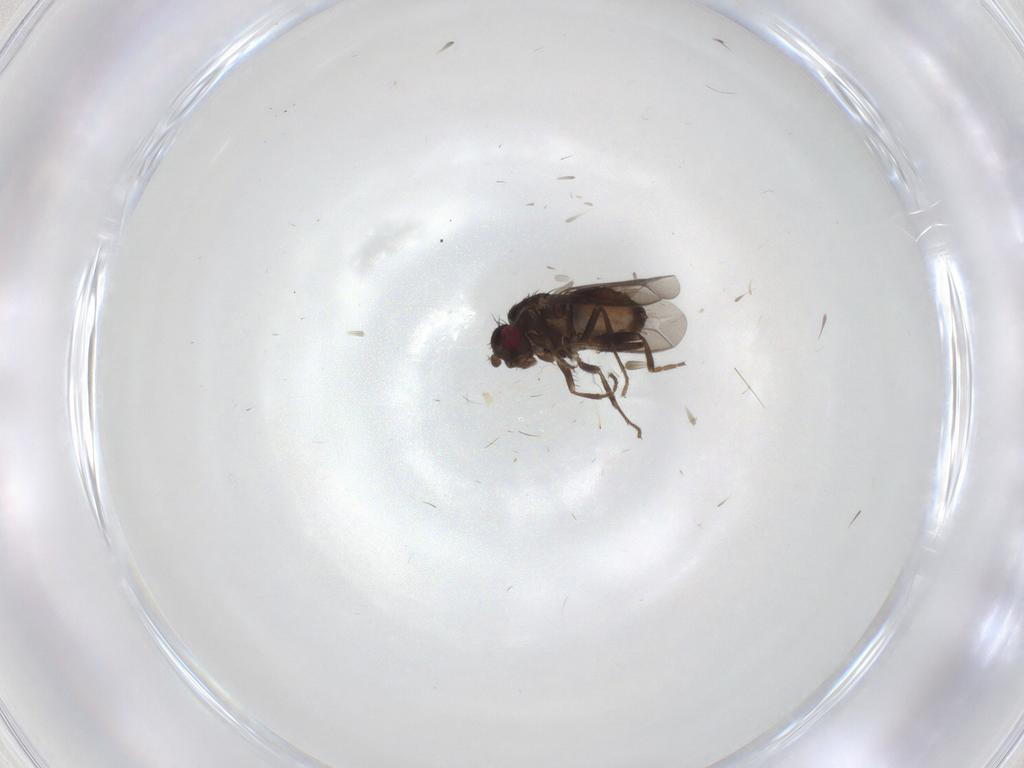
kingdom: Animalia
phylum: Arthropoda
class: Insecta
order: Diptera
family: Sphaeroceridae
